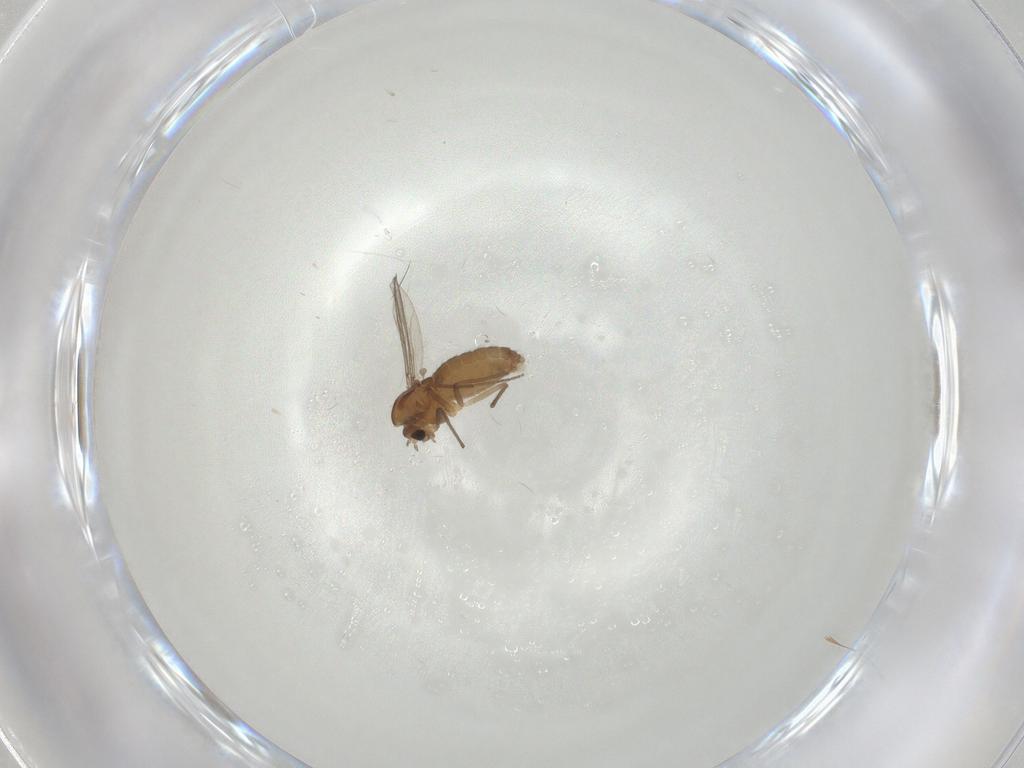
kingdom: Animalia
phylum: Arthropoda
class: Insecta
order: Diptera
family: Chironomidae
